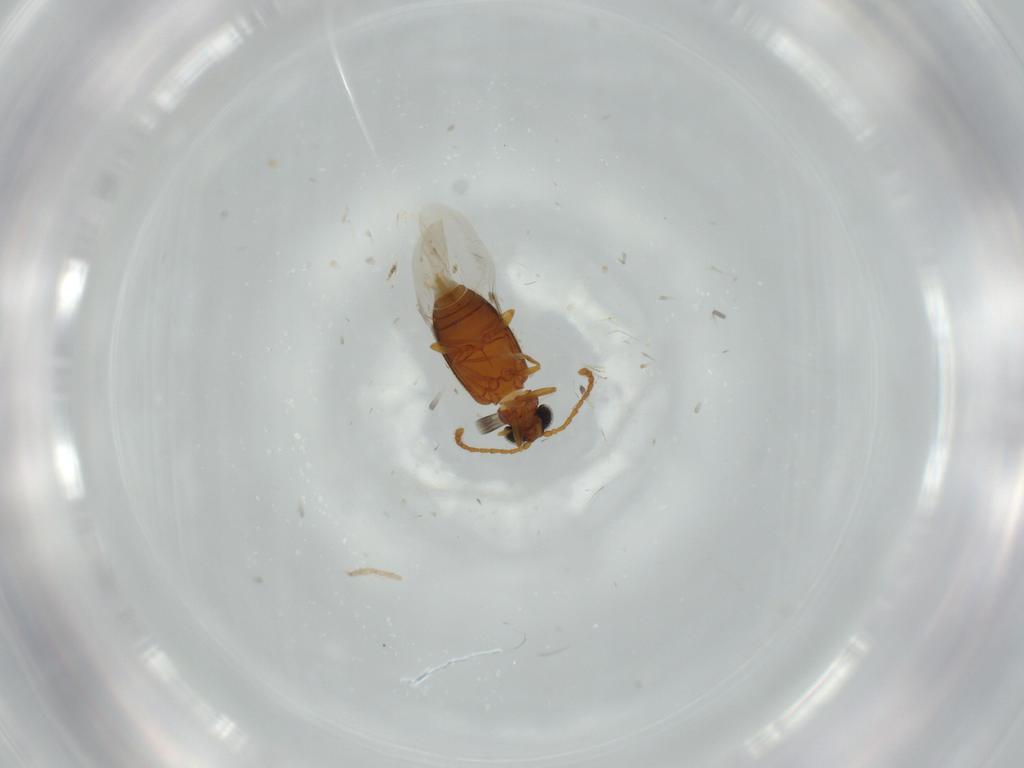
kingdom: Animalia
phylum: Arthropoda
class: Insecta
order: Coleoptera
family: Aderidae
